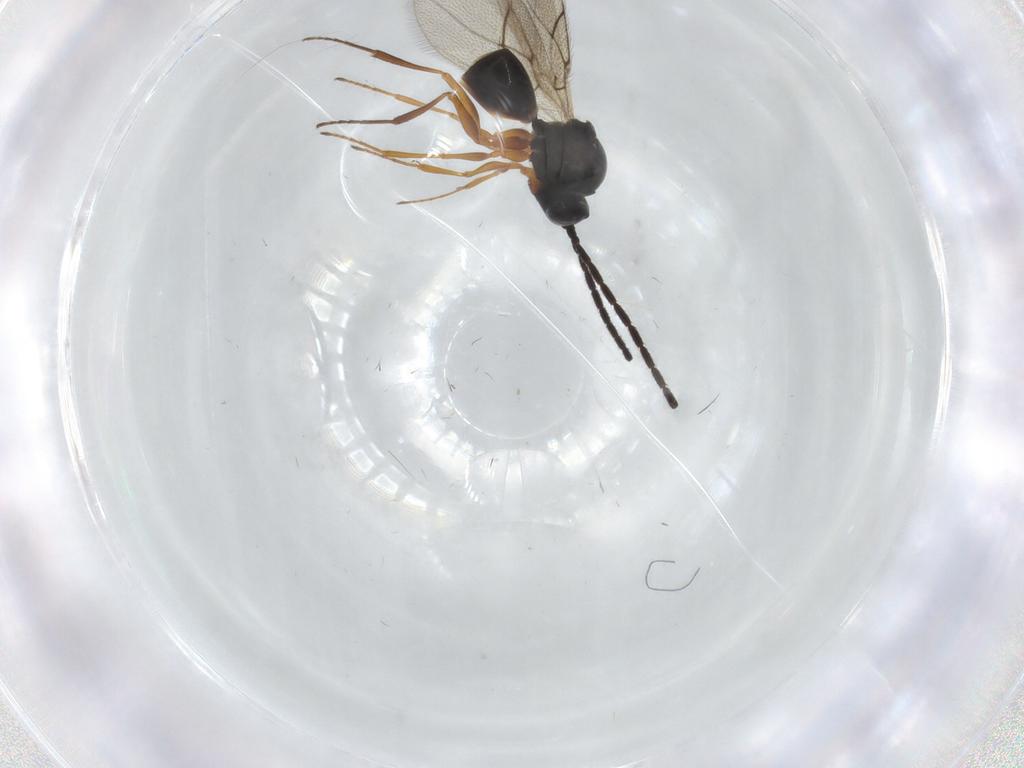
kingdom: Animalia
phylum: Arthropoda
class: Insecta
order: Hymenoptera
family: Figitidae
